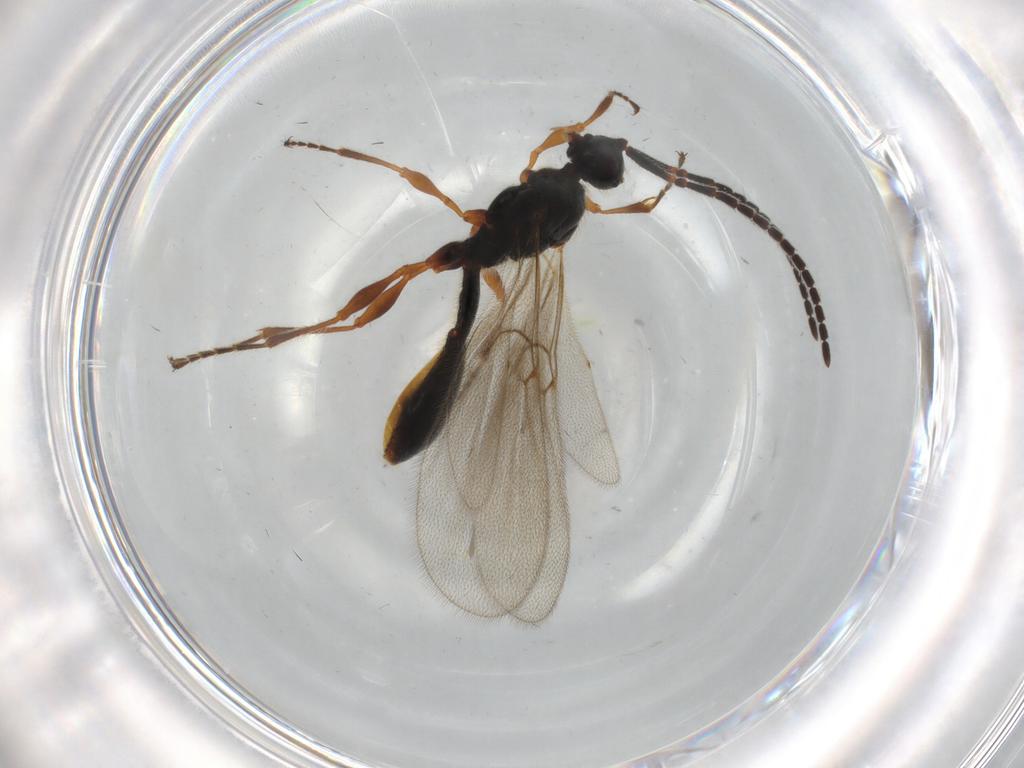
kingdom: Animalia
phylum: Arthropoda
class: Insecta
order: Hymenoptera
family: Diapriidae
